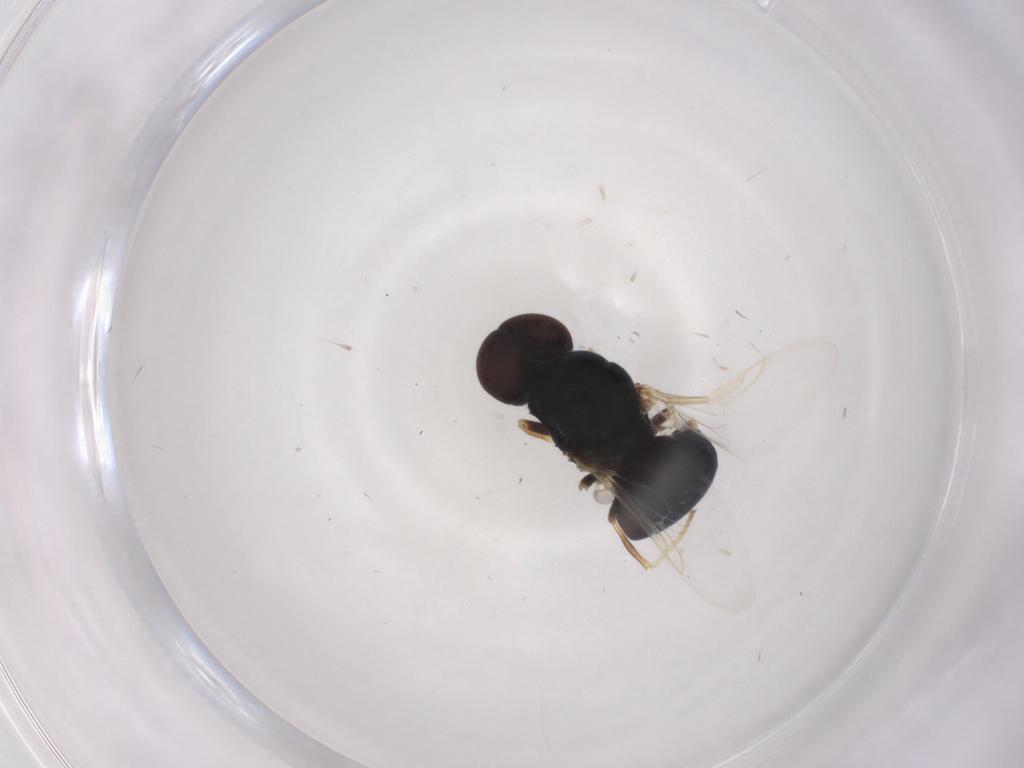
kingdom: Animalia
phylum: Arthropoda
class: Insecta
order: Diptera
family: Stratiomyidae
